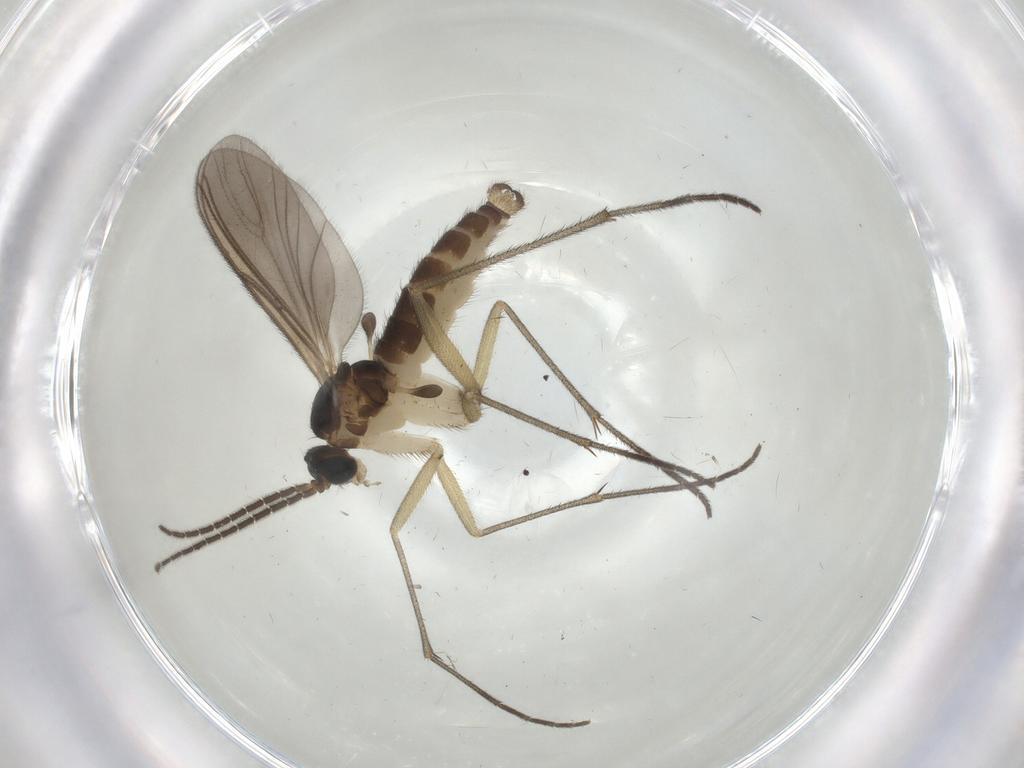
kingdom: Animalia
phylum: Arthropoda
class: Insecta
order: Diptera
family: Sciaridae
